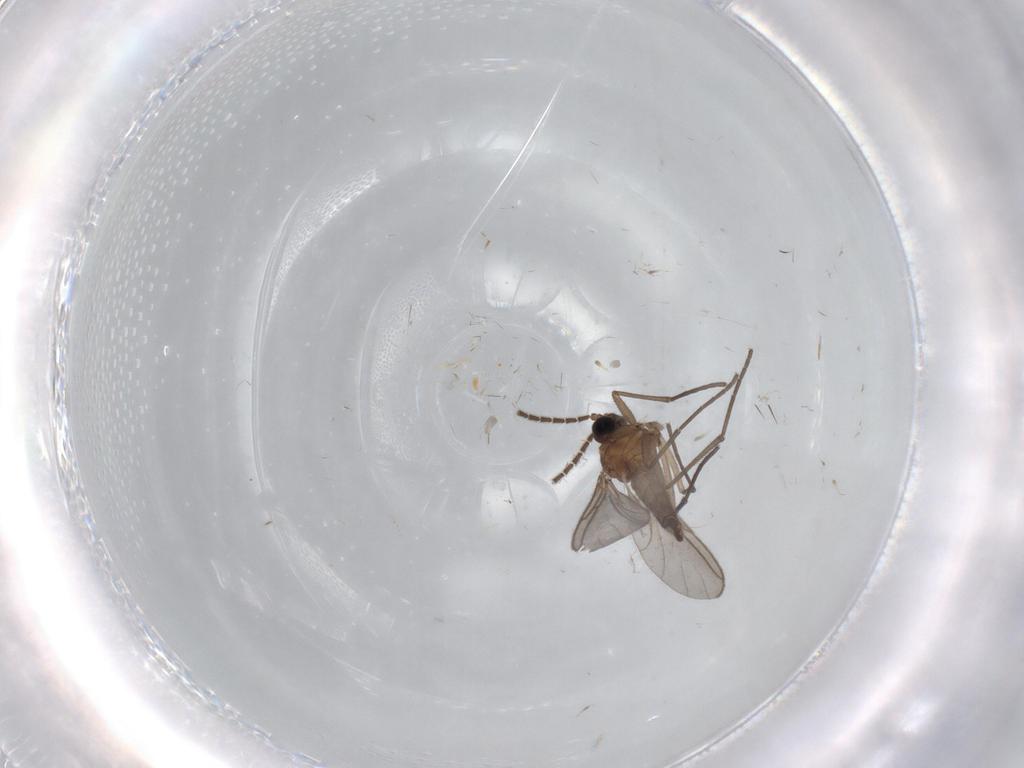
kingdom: Animalia
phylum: Arthropoda
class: Insecta
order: Diptera
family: Sciaridae
